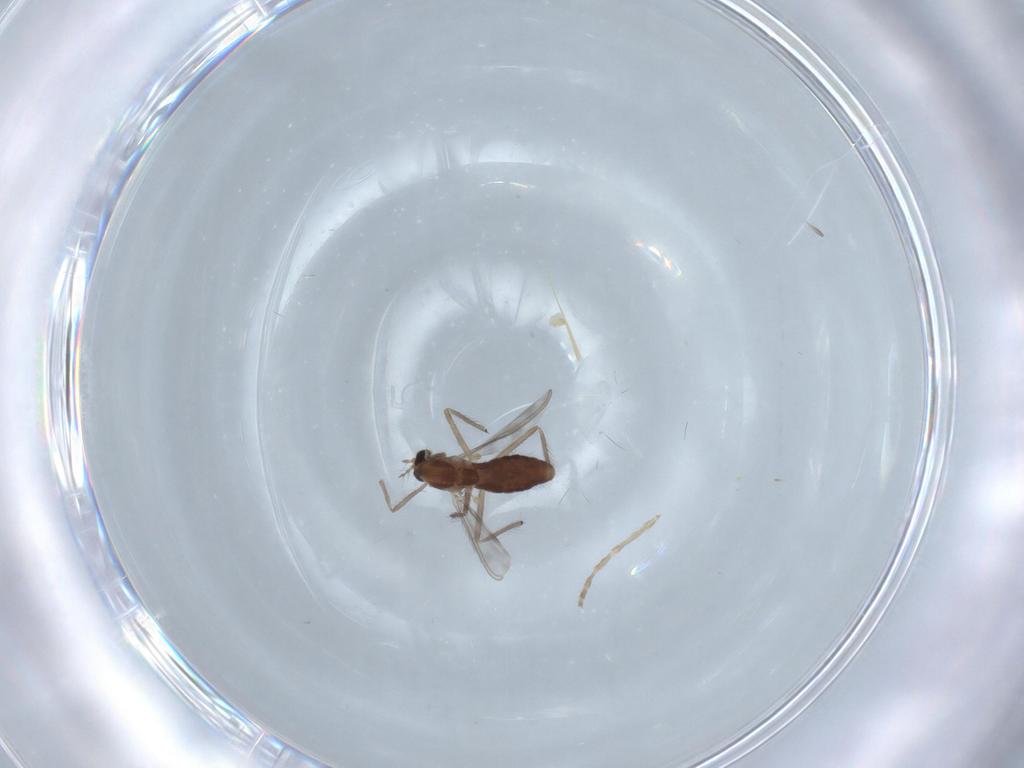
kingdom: Animalia
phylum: Arthropoda
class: Insecta
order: Diptera
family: Chironomidae
